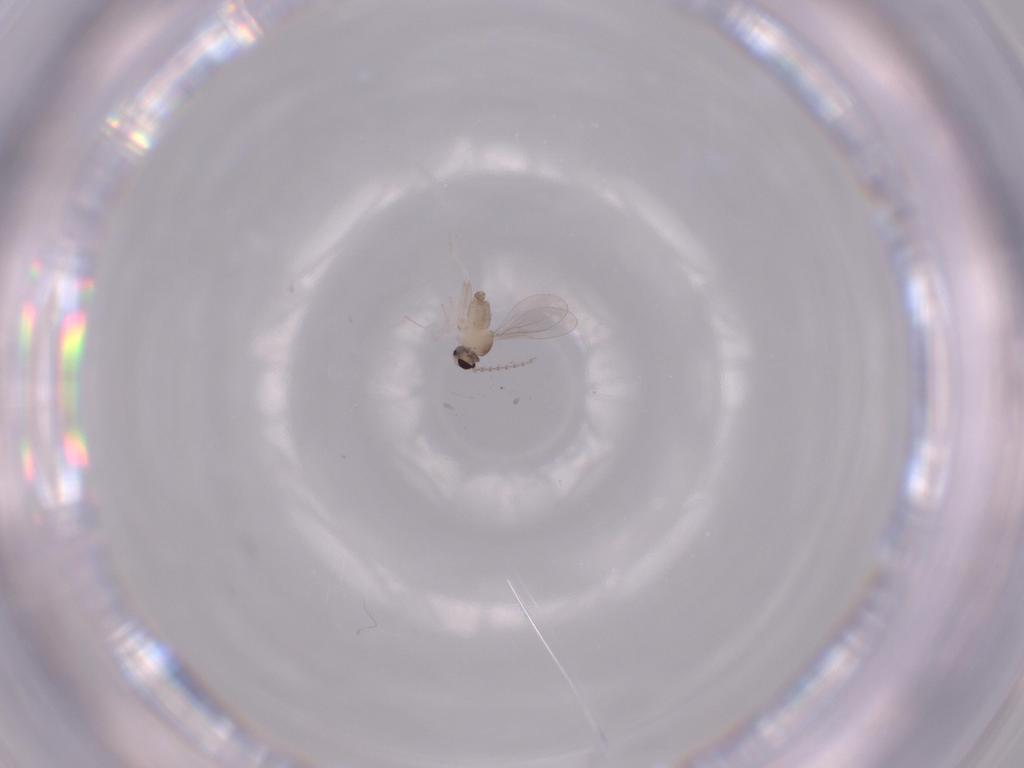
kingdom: Animalia
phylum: Arthropoda
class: Insecta
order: Diptera
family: Cecidomyiidae
